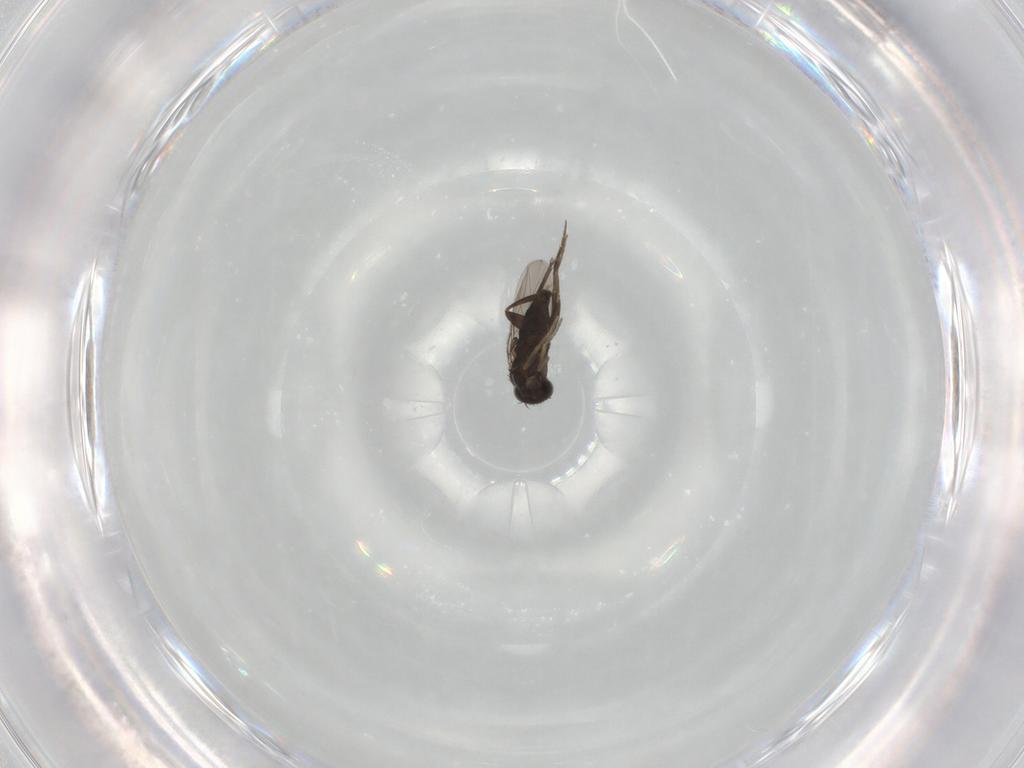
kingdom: Animalia
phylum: Arthropoda
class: Insecta
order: Diptera
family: Phoridae
